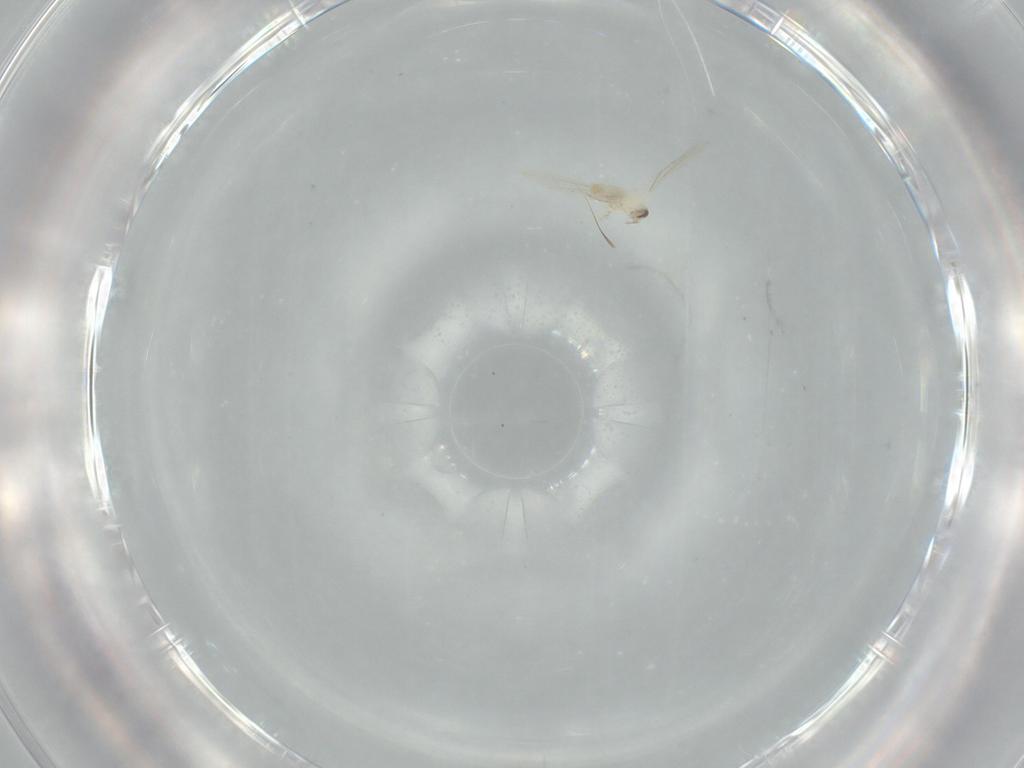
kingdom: Animalia
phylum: Arthropoda
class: Insecta
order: Diptera
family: Cecidomyiidae
